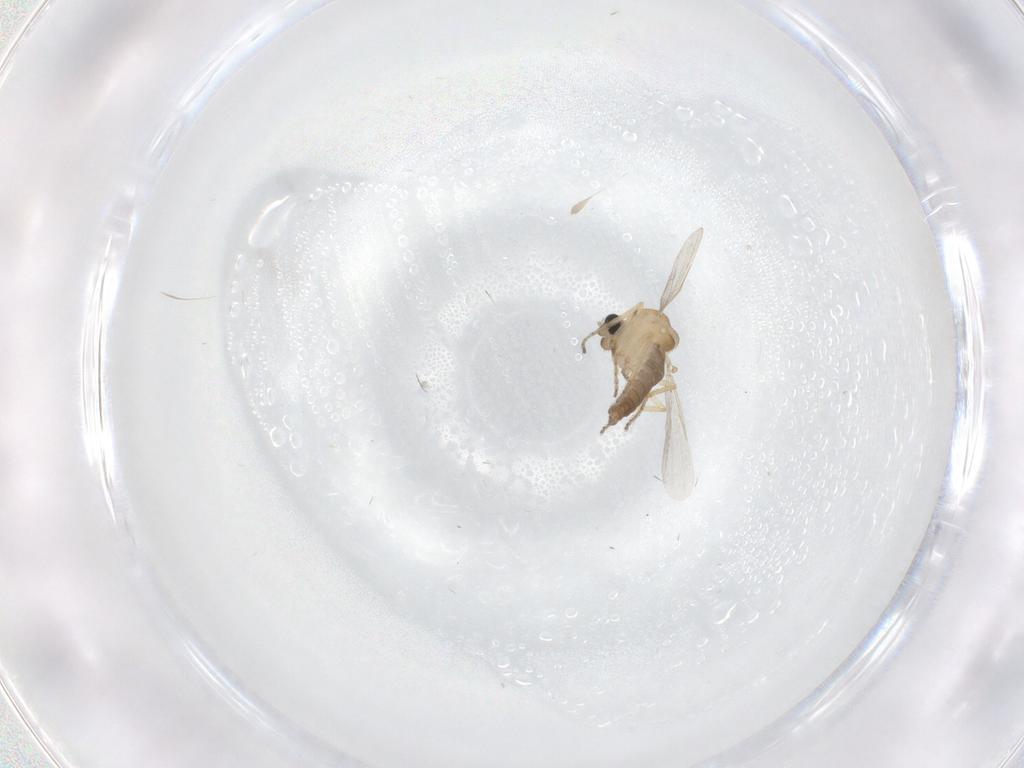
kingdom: Animalia
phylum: Arthropoda
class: Insecta
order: Diptera
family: Ceratopogonidae
